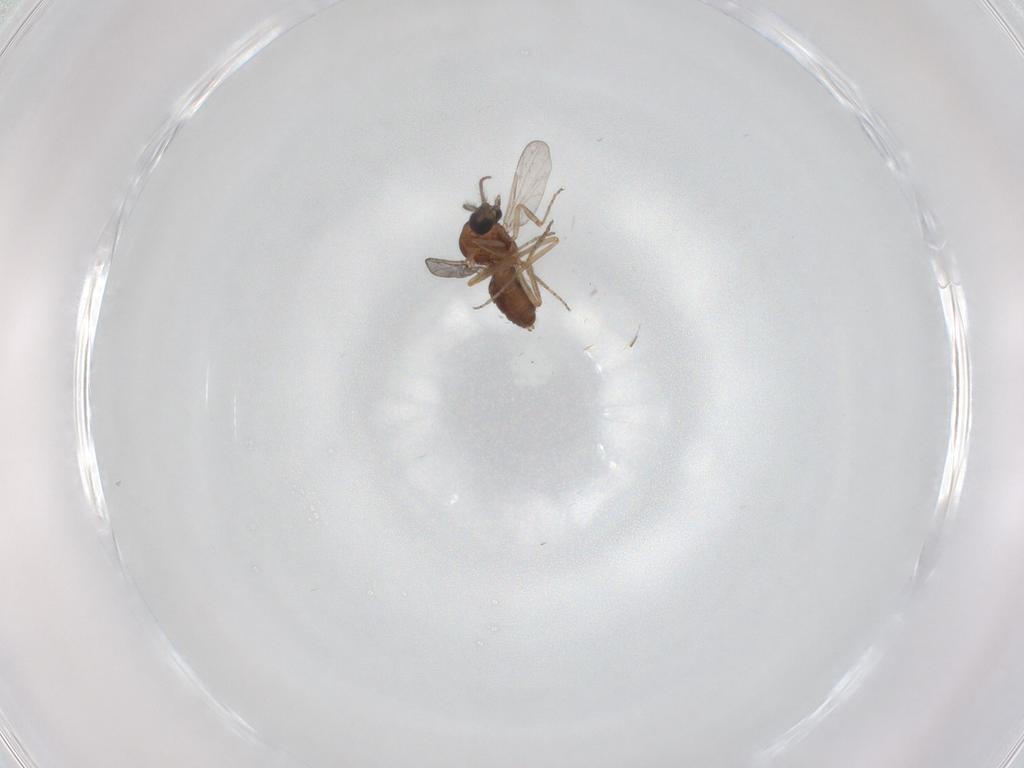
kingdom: Animalia
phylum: Arthropoda
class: Insecta
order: Diptera
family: Ceratopogonidae
